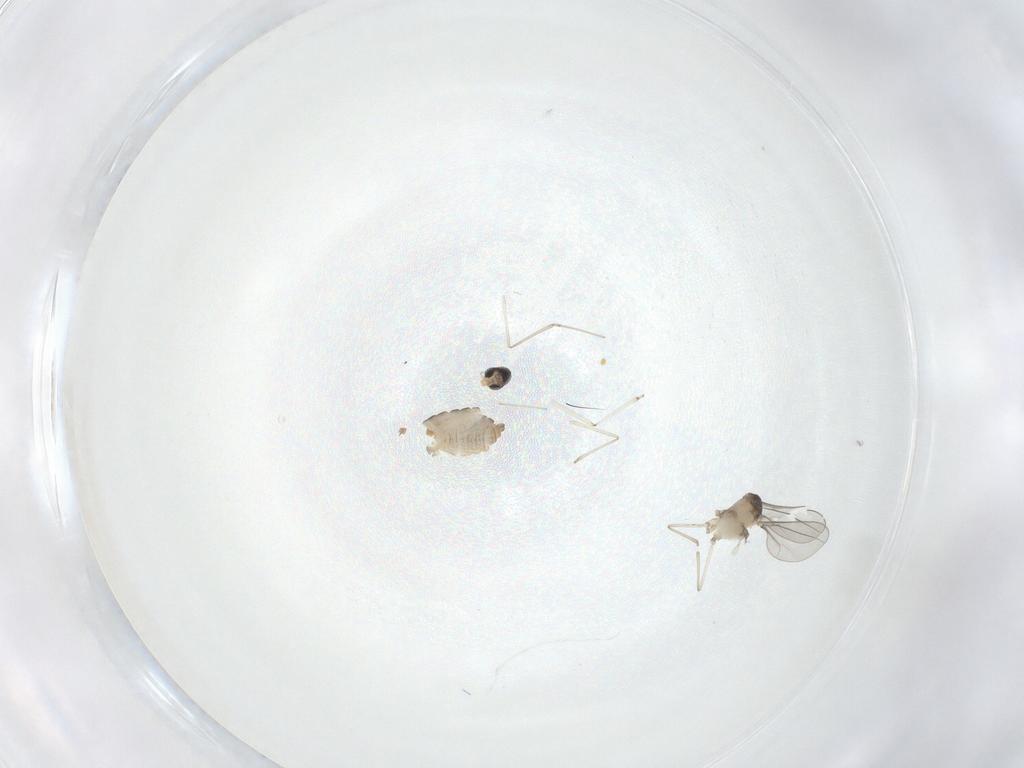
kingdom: Animalia
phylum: Arthropoda
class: Insecta
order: Diptera
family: Cecidomyiidae
